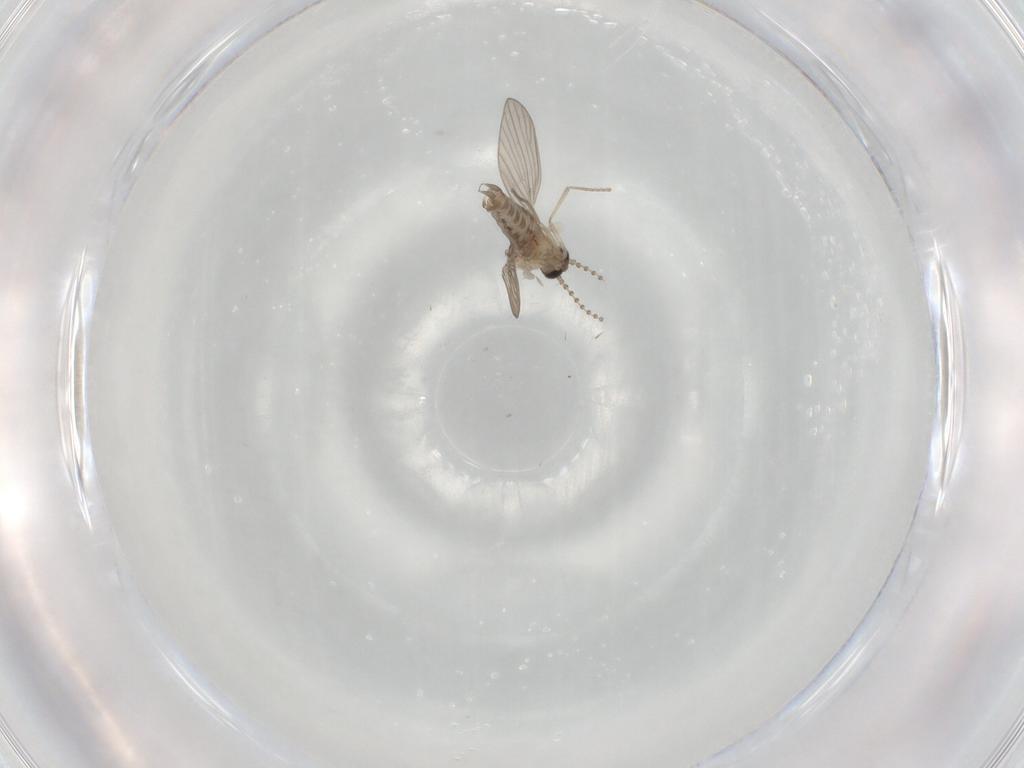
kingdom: Animalia
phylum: Arthropoda
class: Insecta
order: Diptera
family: Psychodidae
